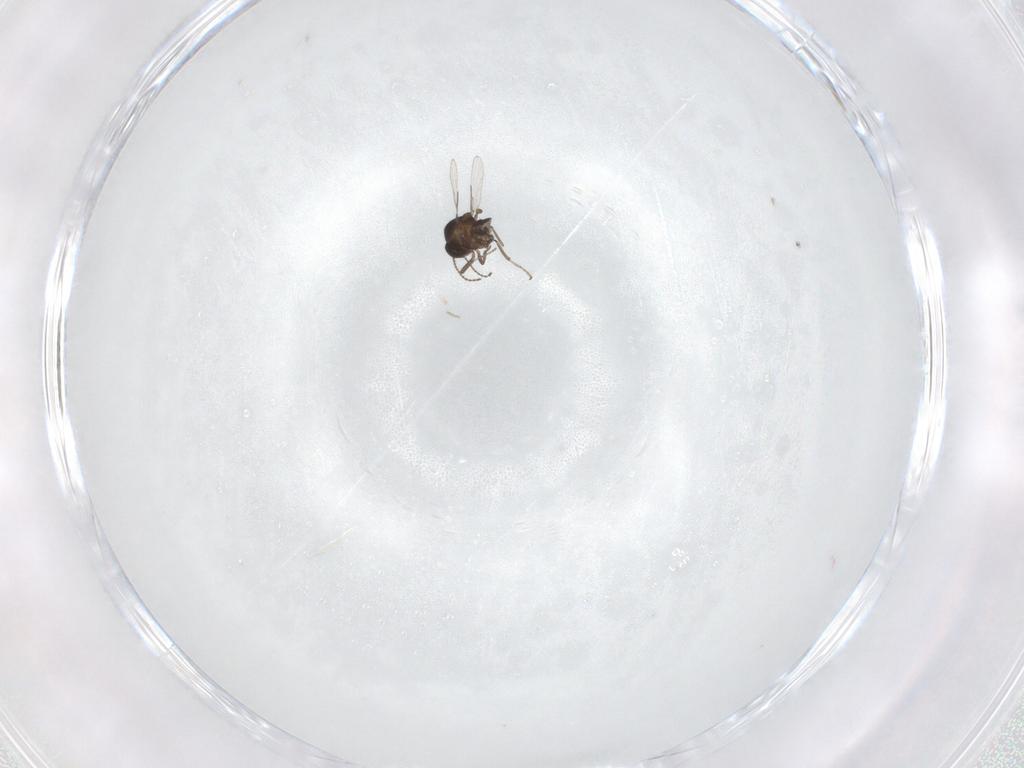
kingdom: Animalia
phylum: Arthropoda
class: Insecta
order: Diptera
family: Ceratopogonidae
